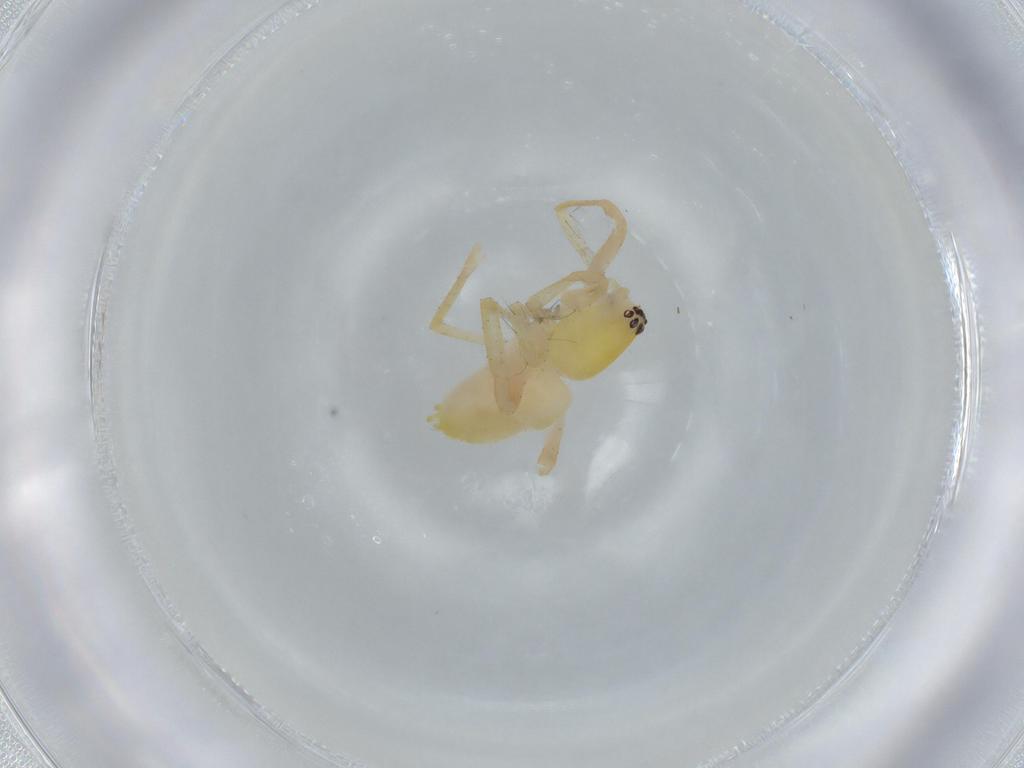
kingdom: Animalia
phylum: Arthropoda
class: Arachnida
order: Araneae
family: Anyphaenidae
